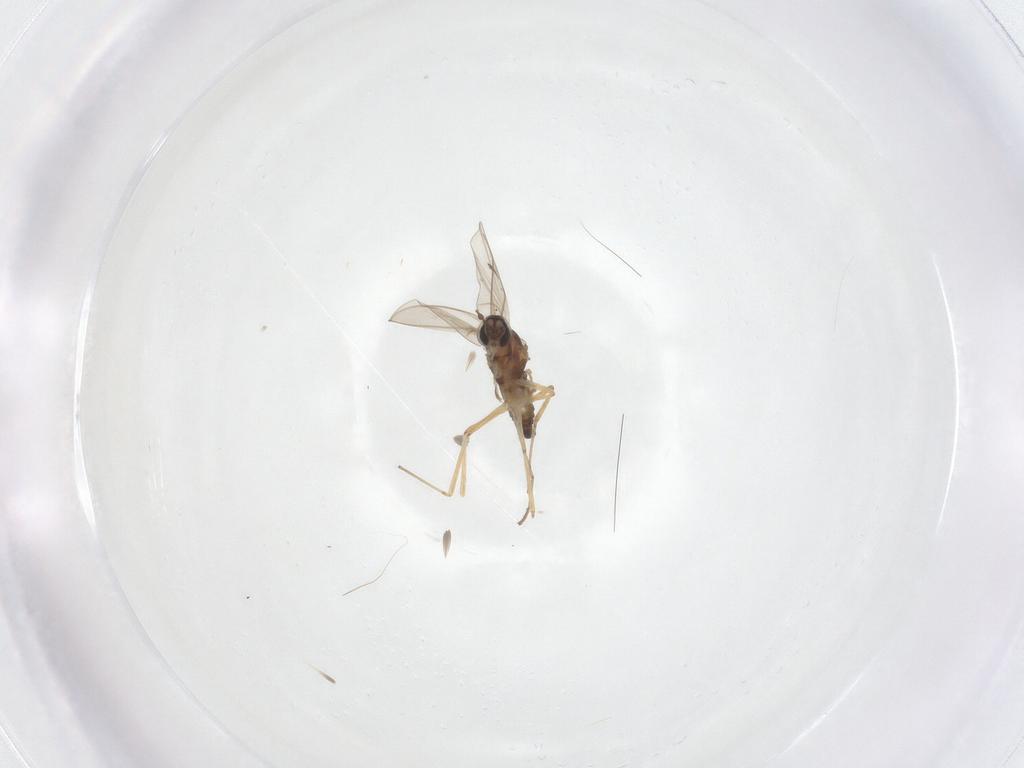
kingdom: Animalia
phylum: Arthropoda
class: Insecta
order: Diptera
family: Cecidomyiidae
